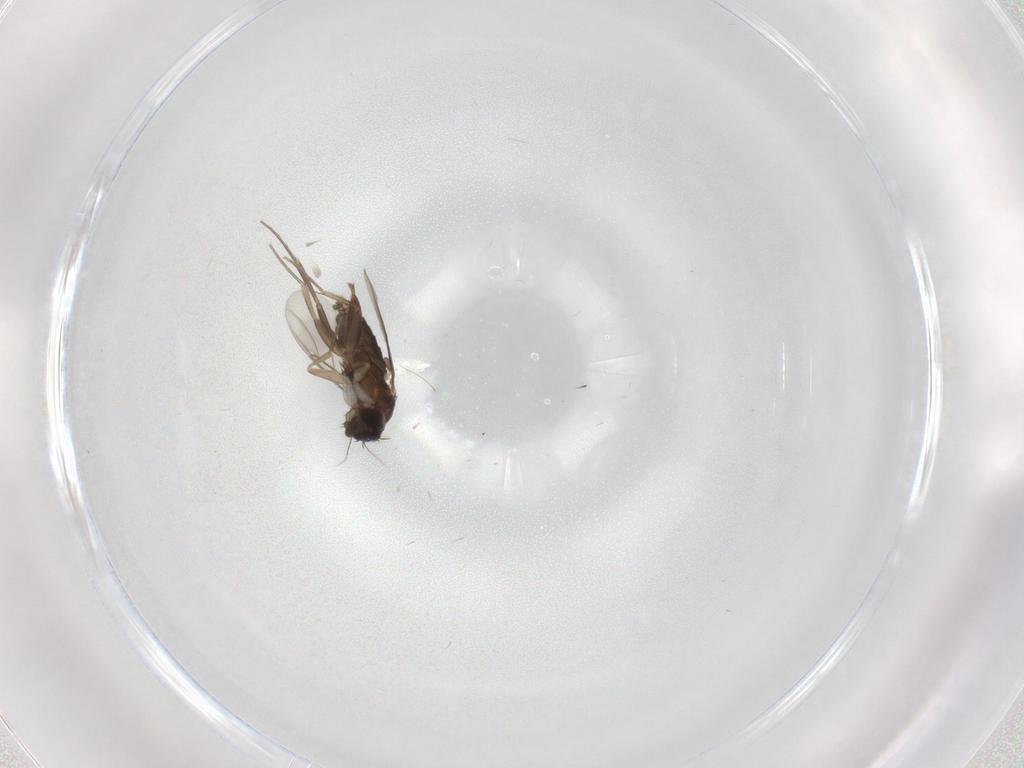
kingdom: Animalia
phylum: Arthropoda
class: Insecta
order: Diptera
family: Phoridae
